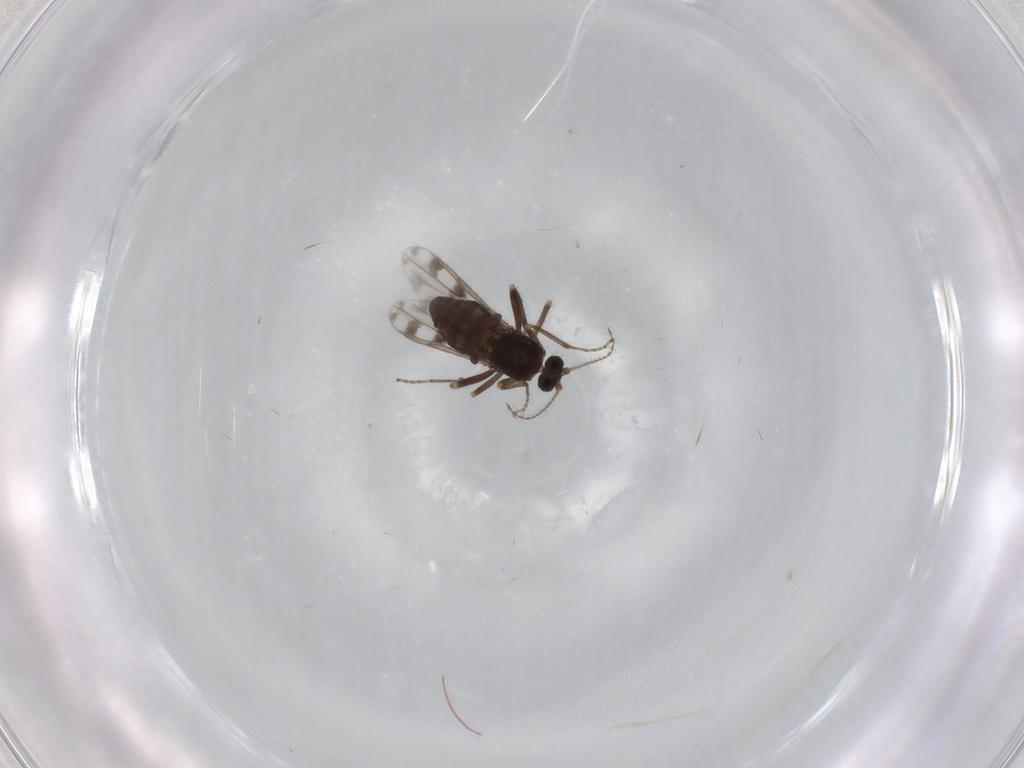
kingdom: Animalia
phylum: Arthropoda
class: Insecta
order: Diptera
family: Ceratopogonidae
